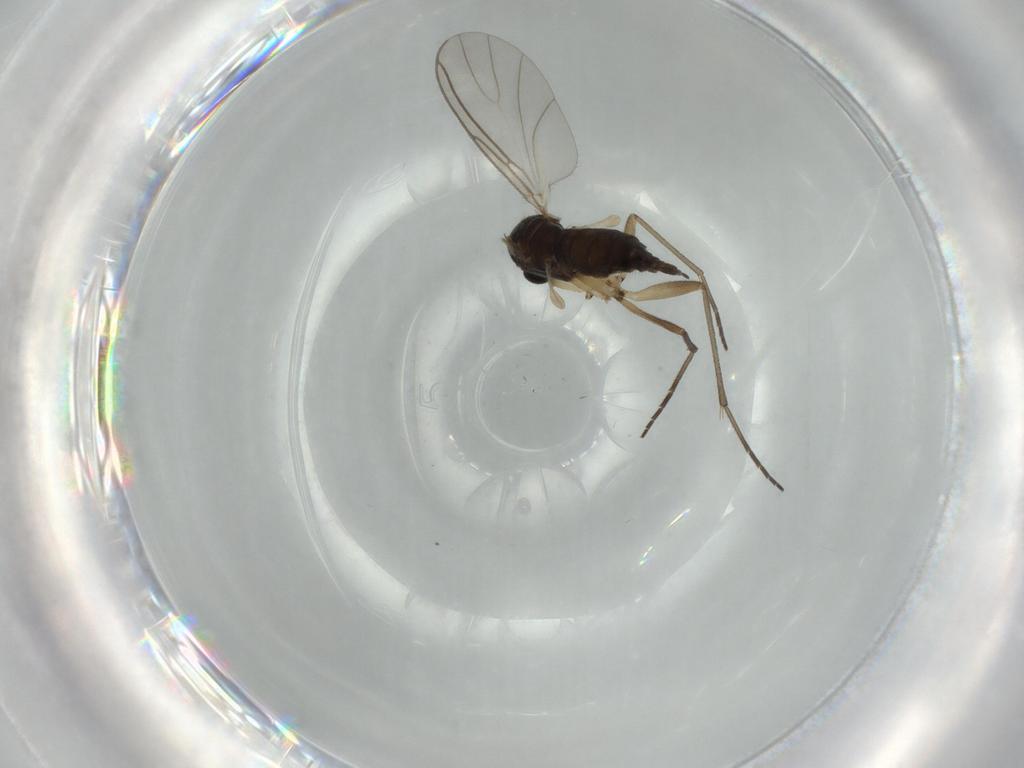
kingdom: Animalia
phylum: Arthropoda
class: Insecta
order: Diptera
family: Sciaridae
